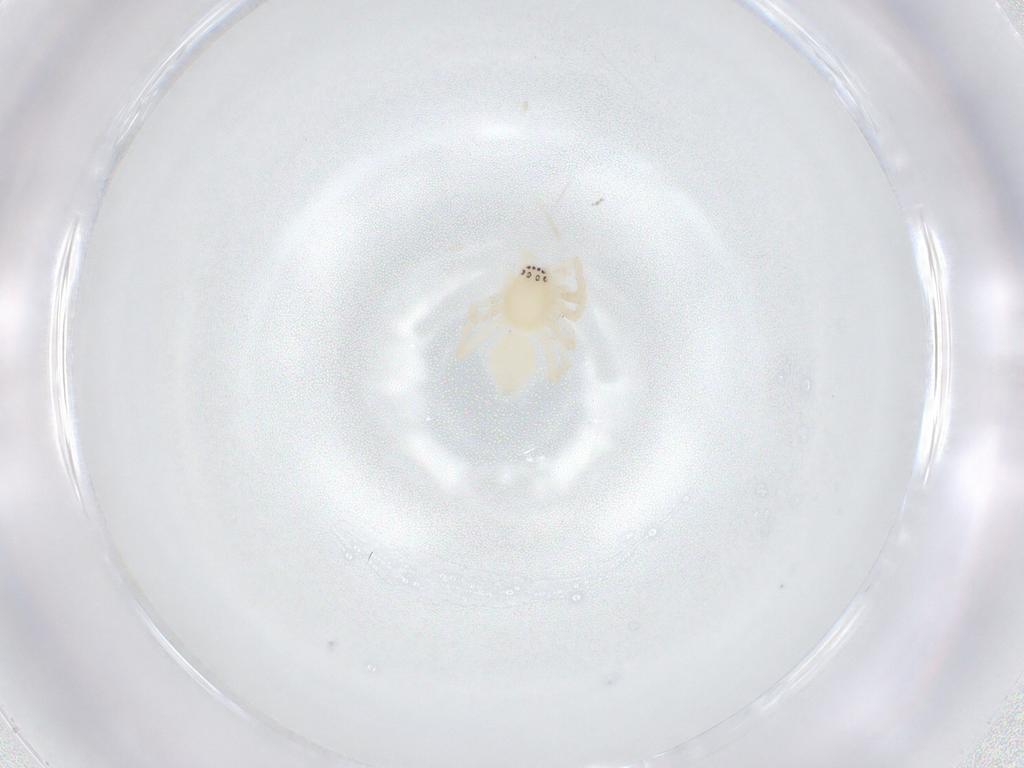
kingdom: Animalia
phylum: Arthropoda
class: Arachnida
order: Araneae
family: Anyphaenidae
